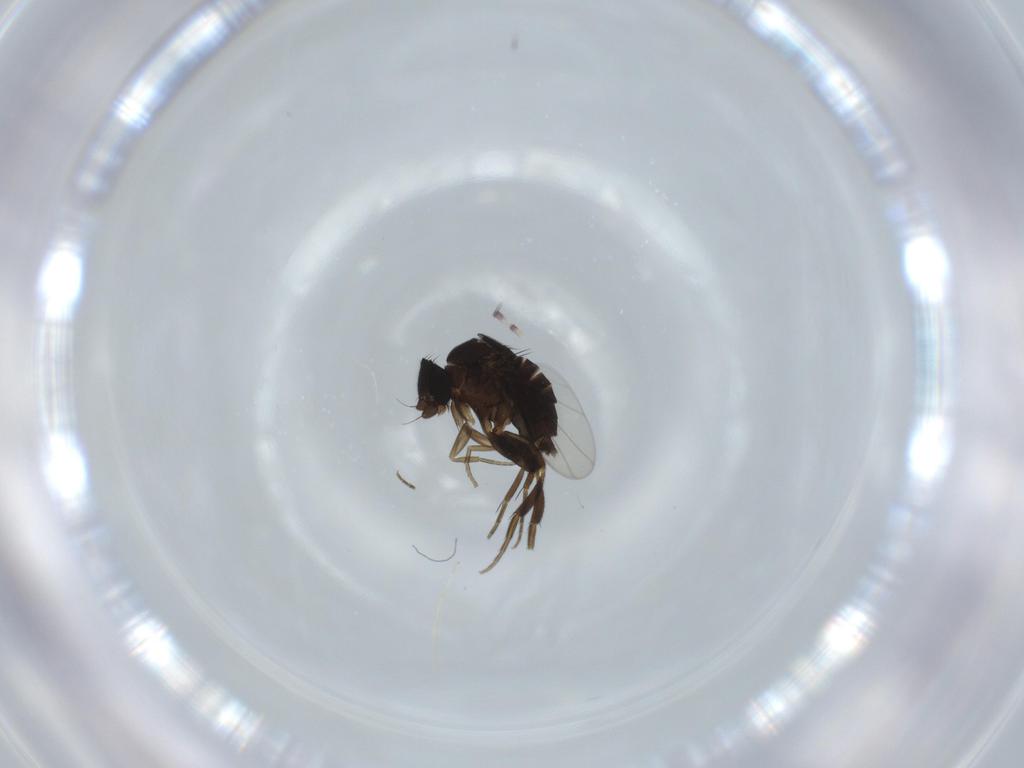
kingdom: Animalia
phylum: Arthropoda
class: Insecta
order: Diptera
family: Phoridae
